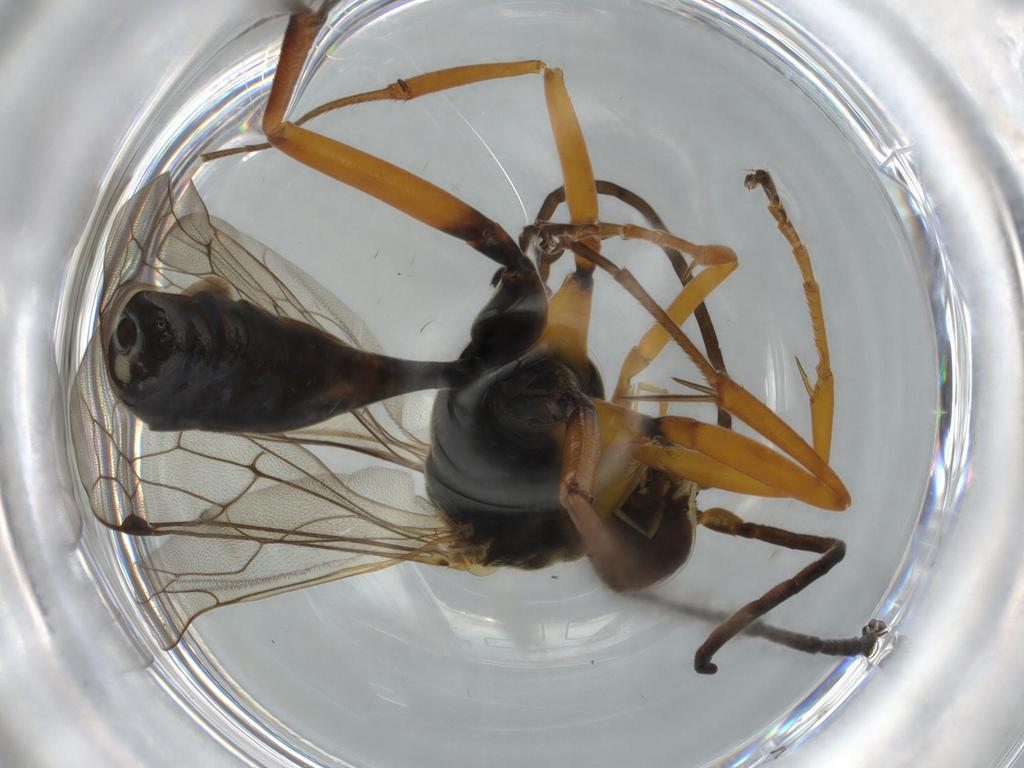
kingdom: Animalia
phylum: Arthropoda
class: Insecta
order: Hymenoptera
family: Pompilidae
